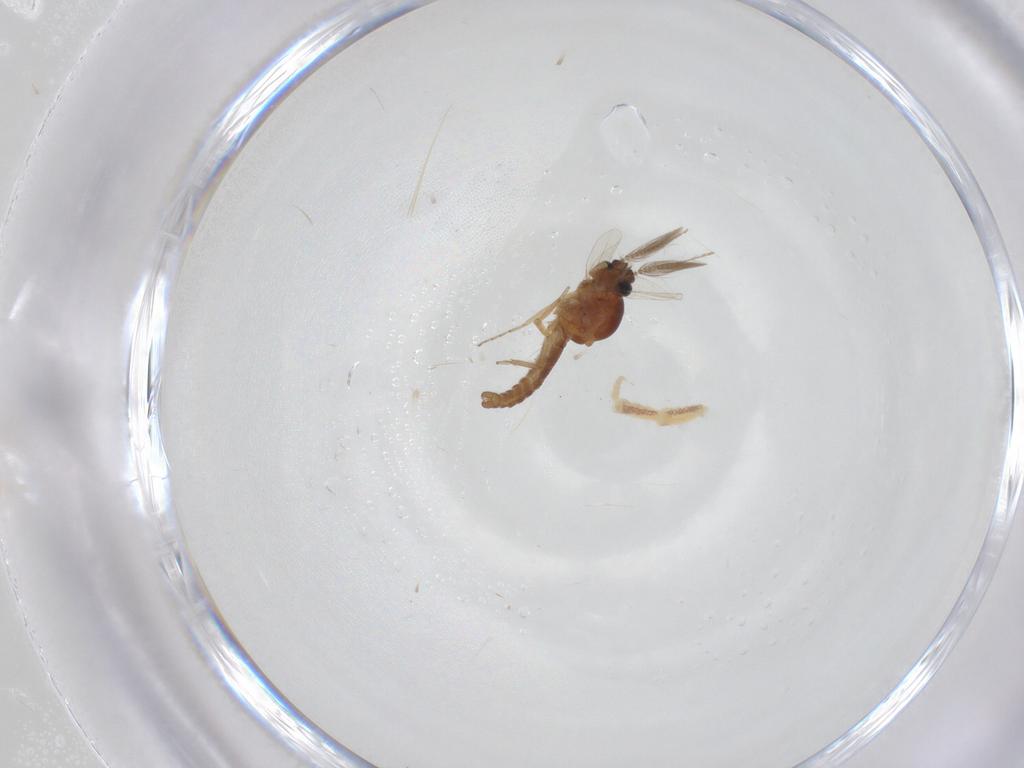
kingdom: Animalia
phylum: Arthropoda
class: Insecta
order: Diptera
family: Ceratopogonidae
